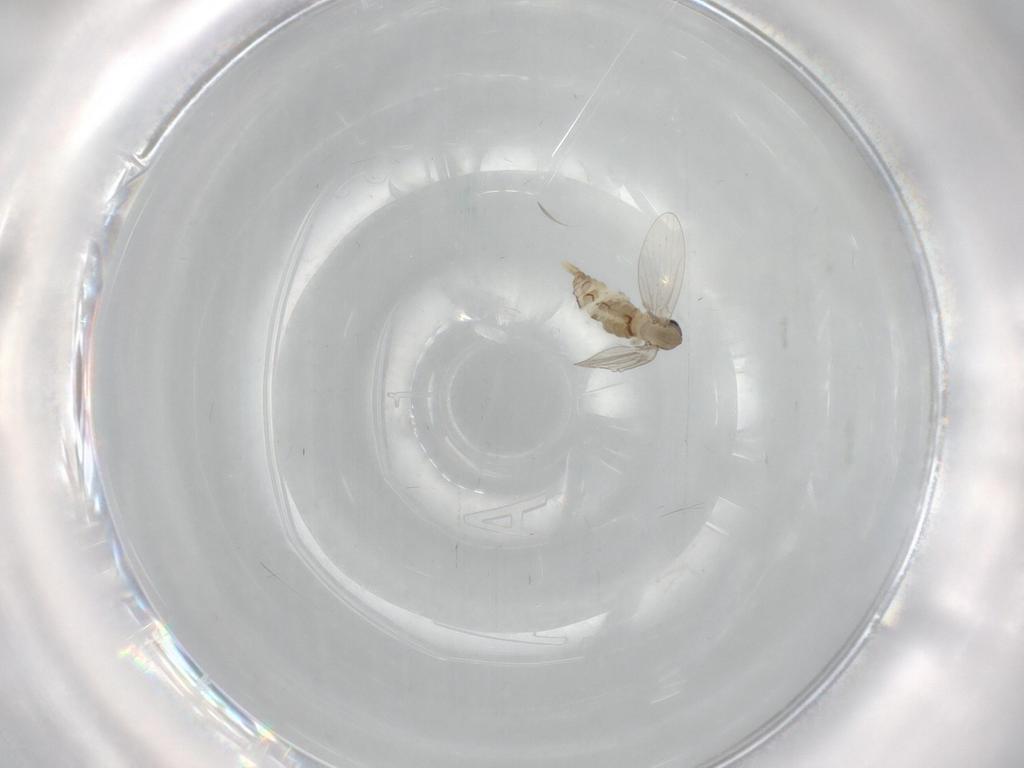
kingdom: Animalia
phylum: Arthropoda
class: Insecta
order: Diptera
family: Psychodidae
